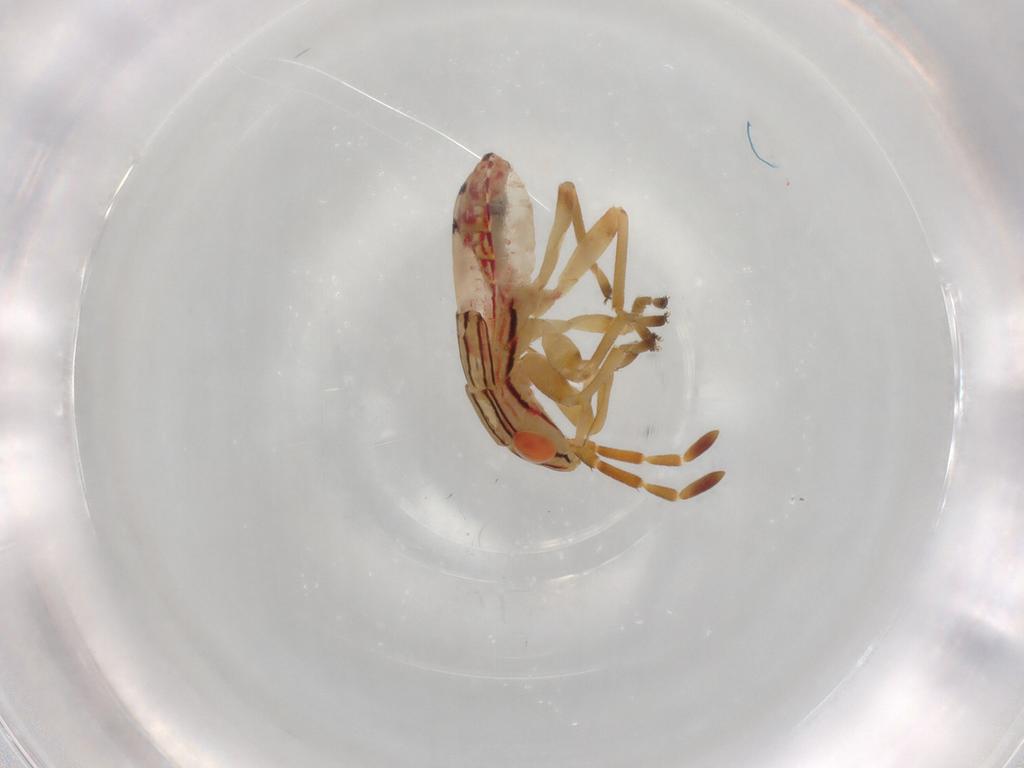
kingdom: Animalia
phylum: Arthropoda
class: Insecta
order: Hemiptera
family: Geocoridae
